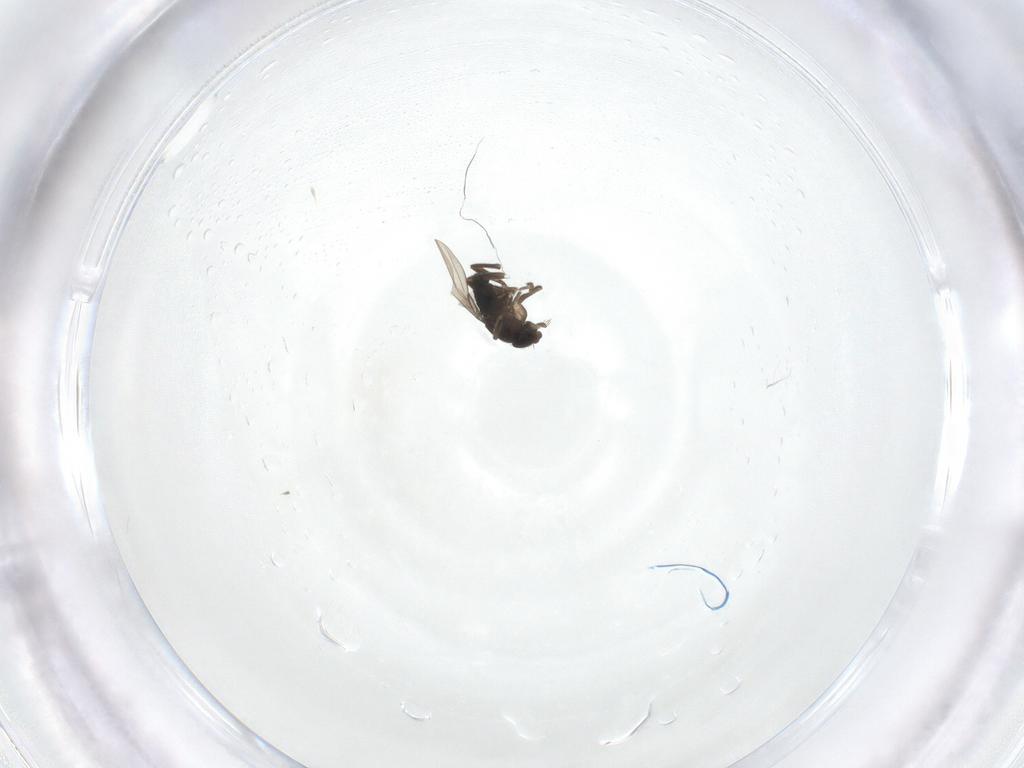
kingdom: Animalia
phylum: Arthropoda
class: Insecta
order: Diptera
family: Phoridae
